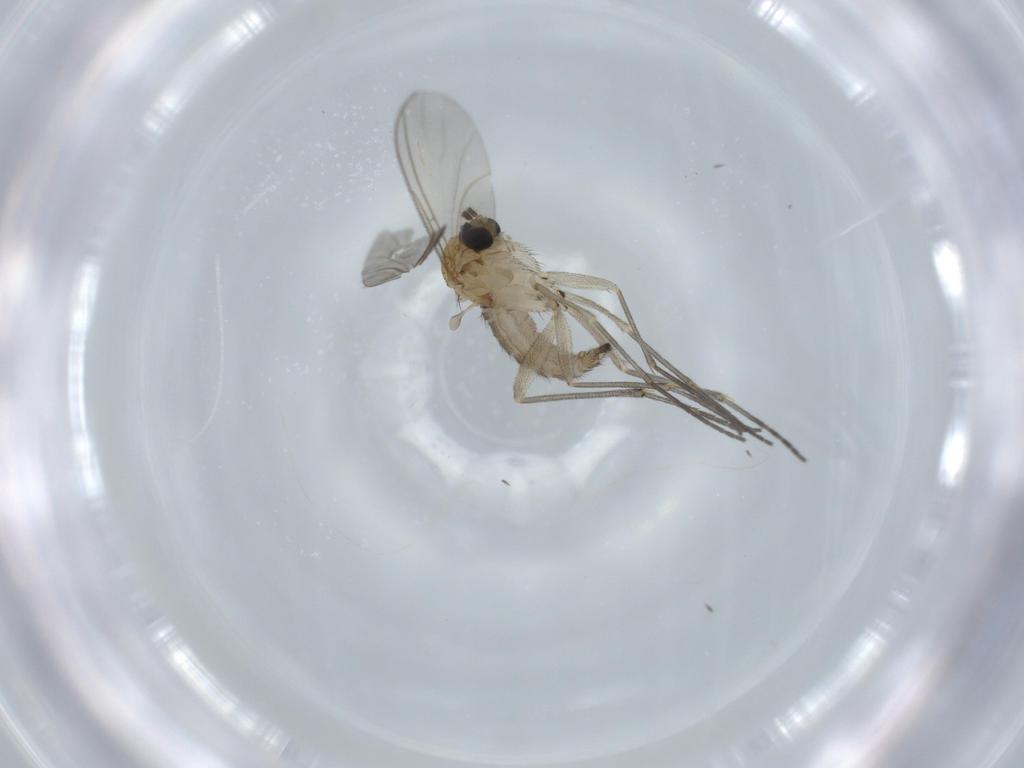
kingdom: Animalia
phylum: Arthropoda
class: Insecta
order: Diptera
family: Sciaridae
